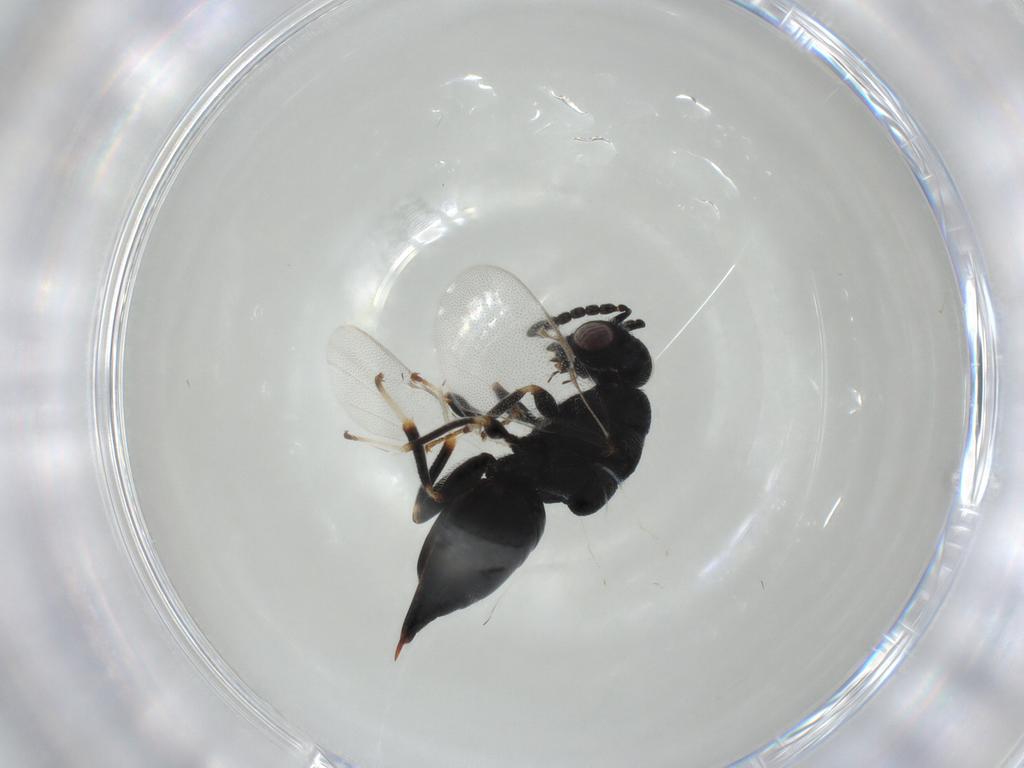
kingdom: Animalia
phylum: Arthropoda
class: Insecta
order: Hymenoptera
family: Eurytomidae
